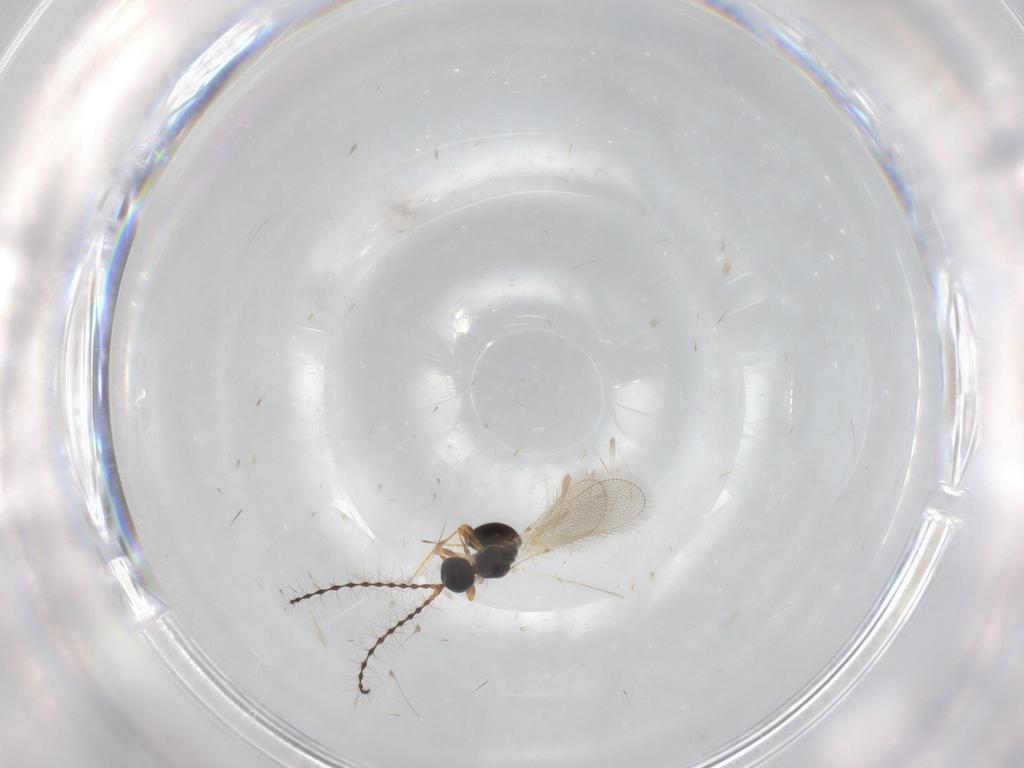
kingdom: Animalia
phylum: Arthropoda
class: Insecta
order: Hymenoptera
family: Diapriidae
